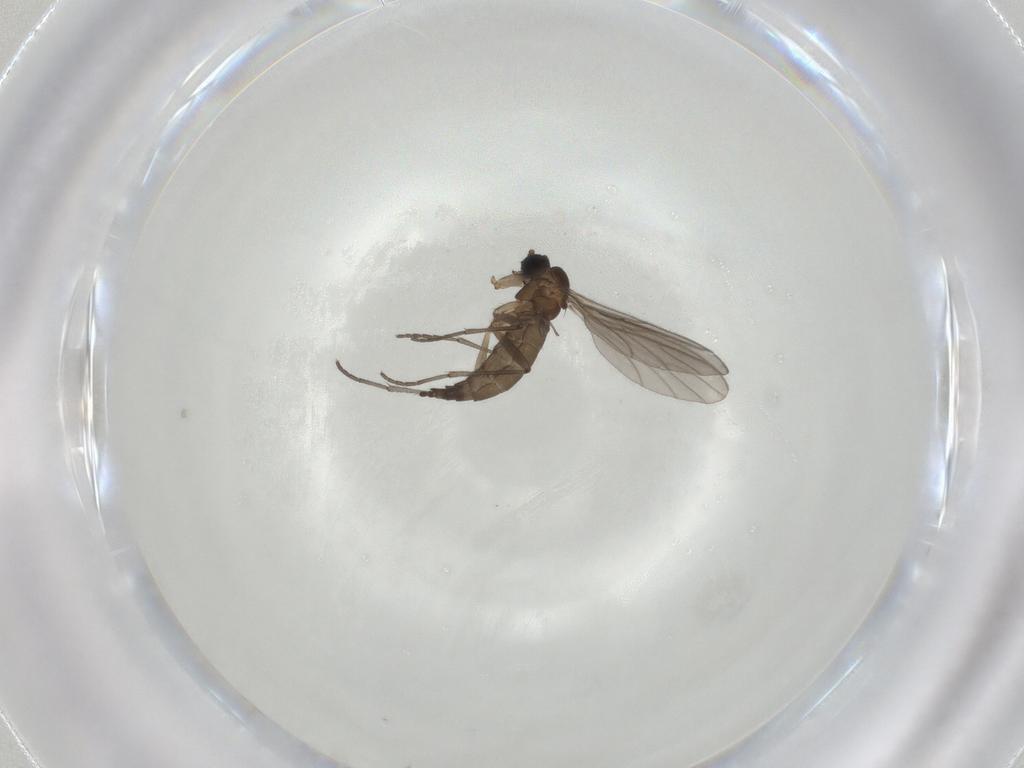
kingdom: Animalia
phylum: Arthropoda
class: Insecta
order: Diptera
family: Sciaridae
